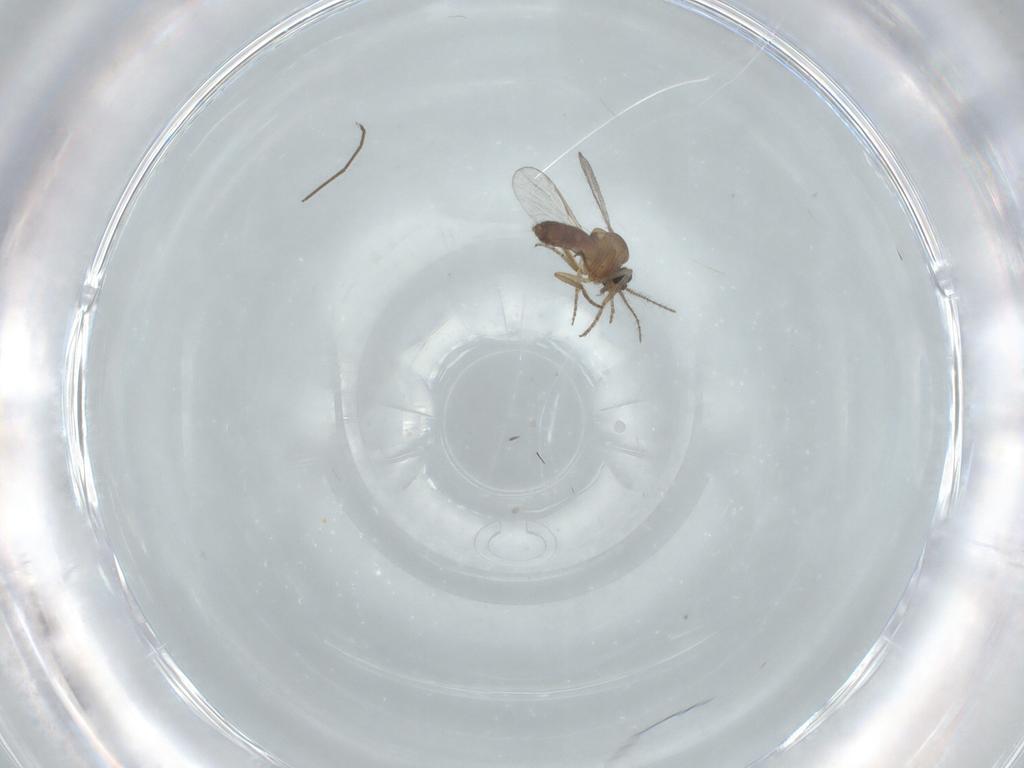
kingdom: Animalia
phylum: Arthropoda
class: Insecta
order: Diptera
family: Chironomidae
